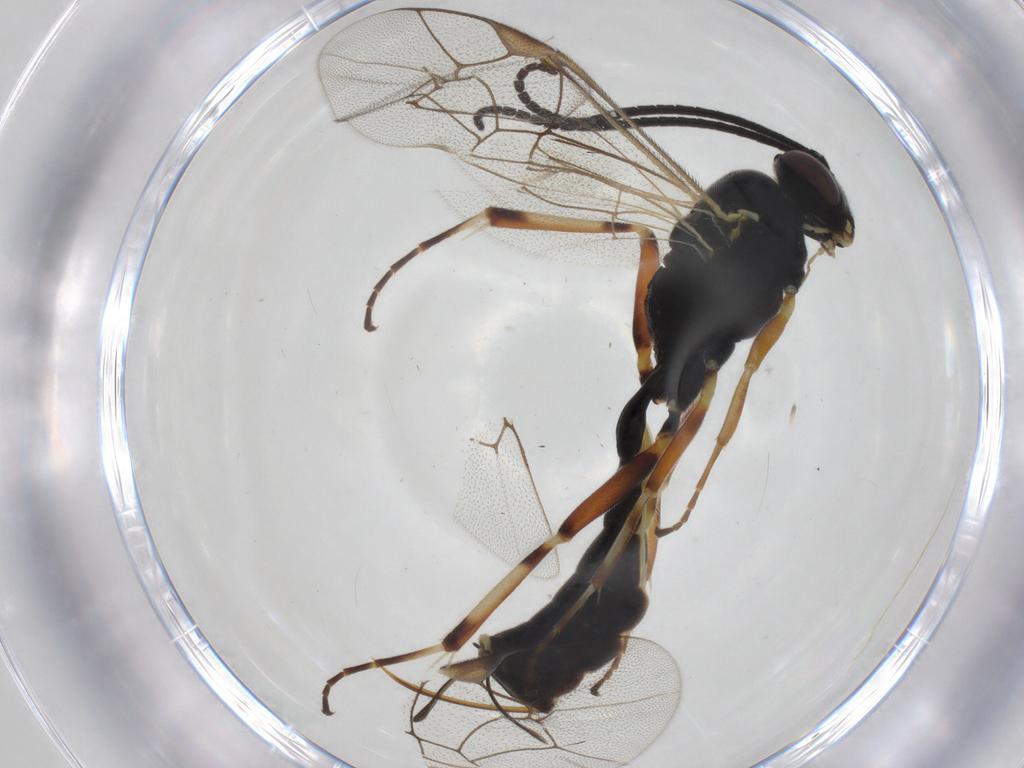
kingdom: Animalia
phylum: Arthropoda
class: Insecta
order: Hymenoptera
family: Ichneumonidae
